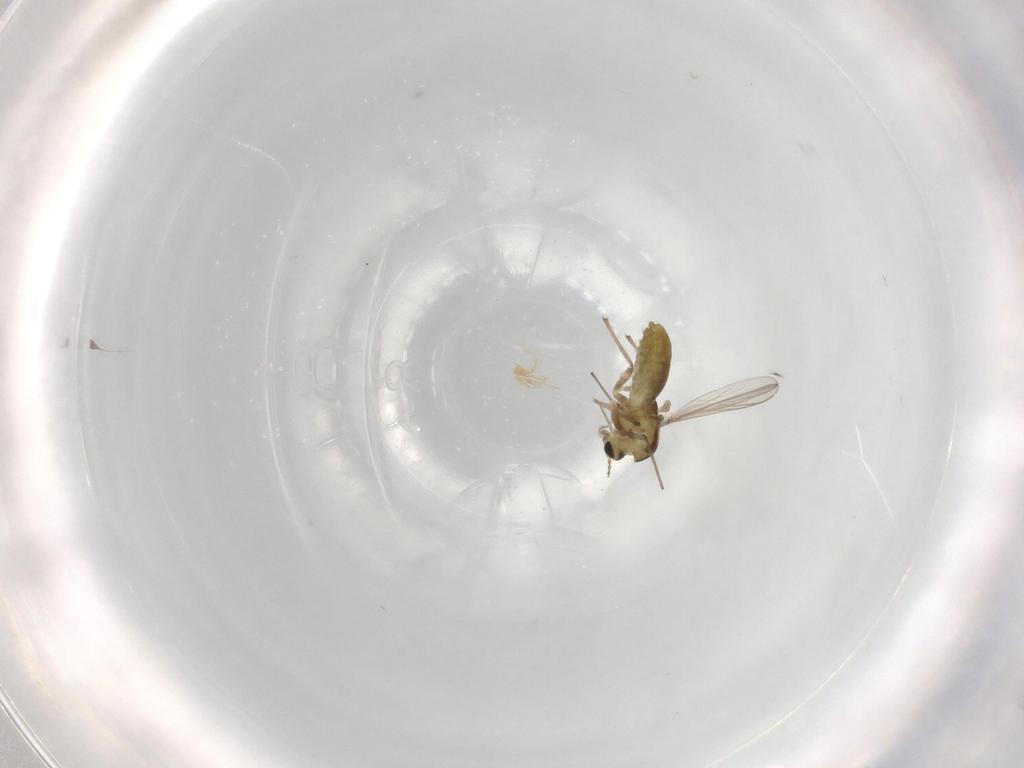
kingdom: Animalia
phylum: Arthropoda
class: Insecta
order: Diptera
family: Chironomidae
